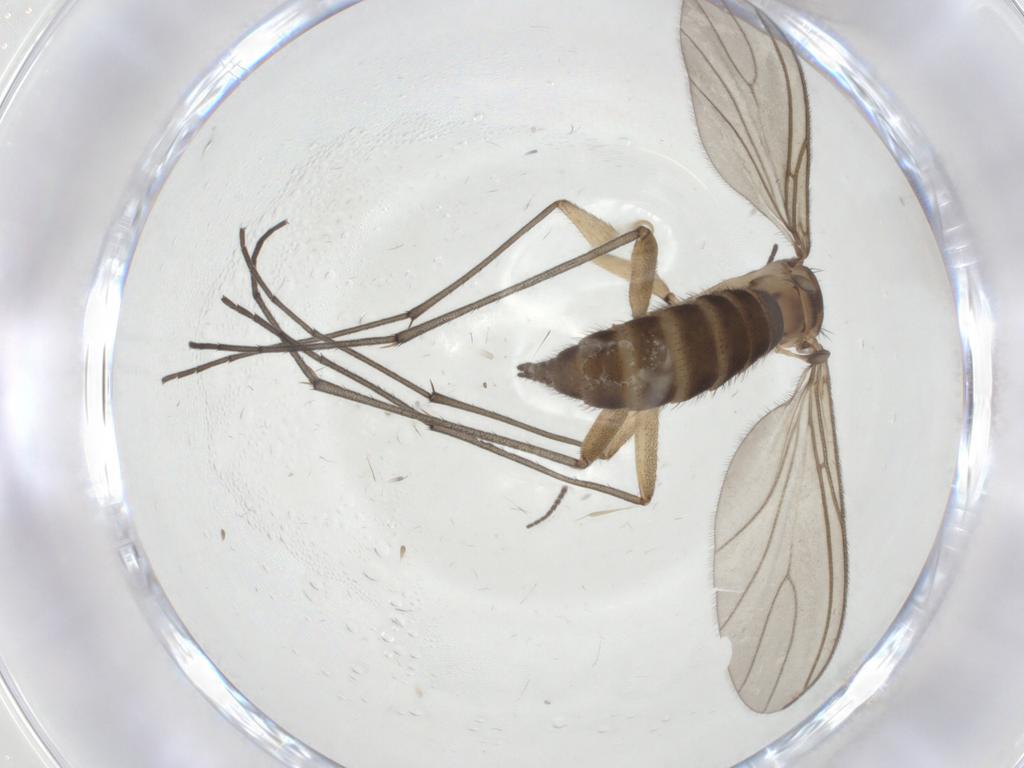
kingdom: Animalia
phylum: Arthropoda
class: Insecta
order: Diptera
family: Sciaridae
